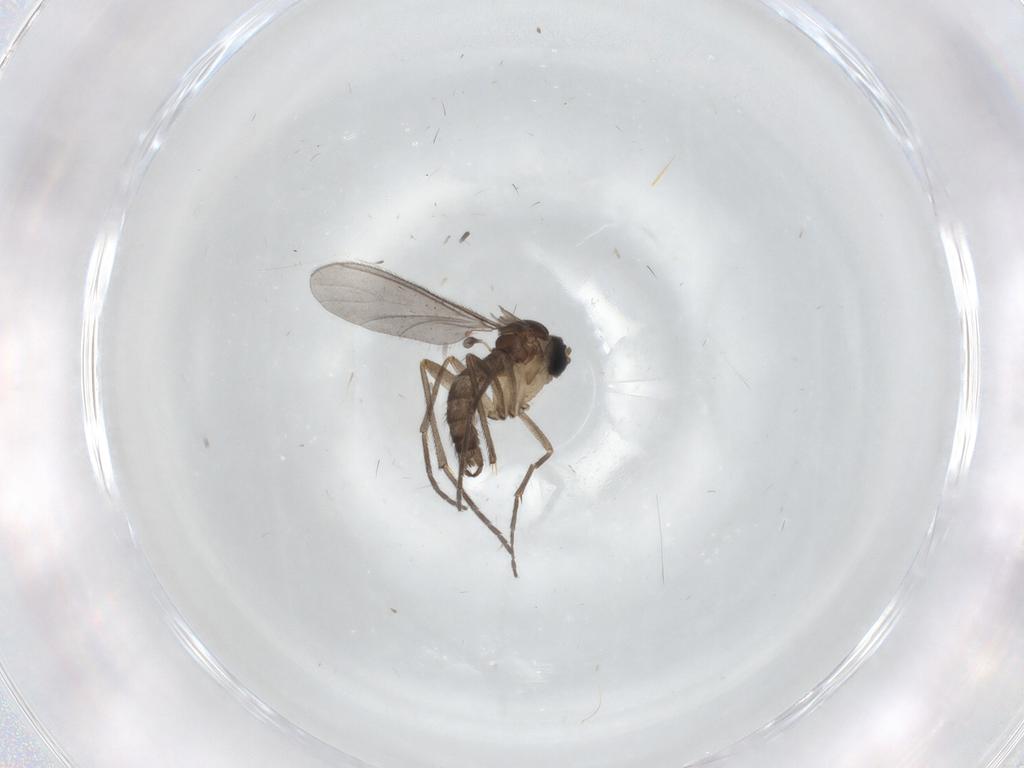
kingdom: Animalia
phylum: Arthropoda
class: Insecta
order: Diptera
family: Sciaridae
